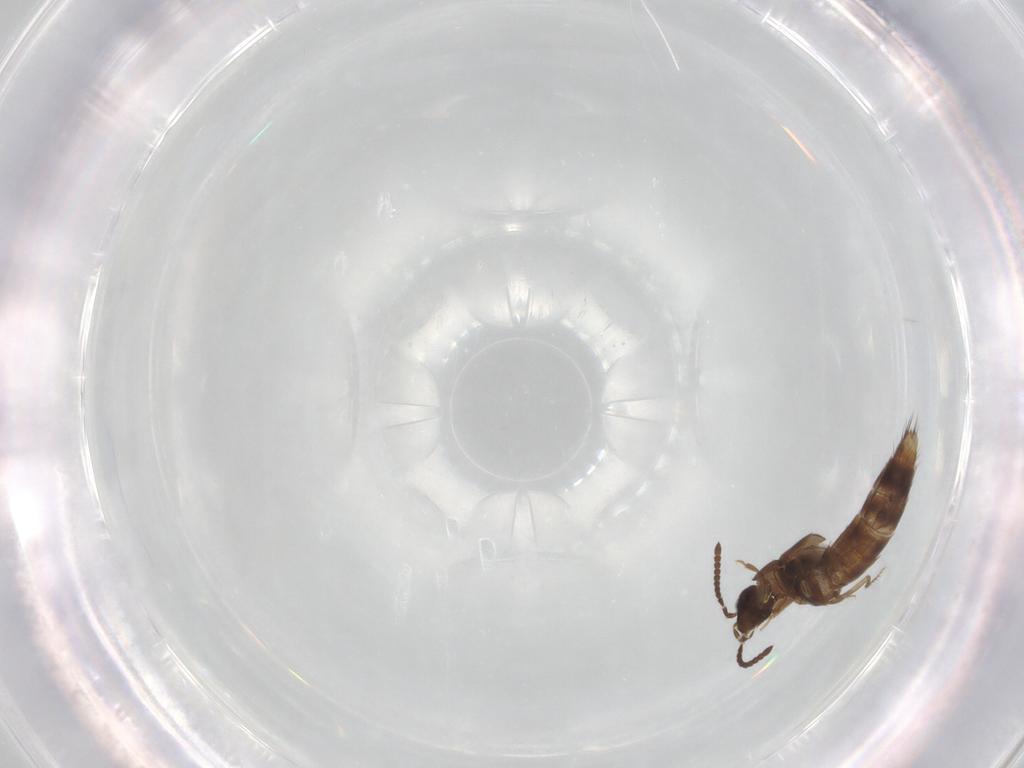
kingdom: Animalia
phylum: Arthropoda
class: Insecta
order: Coleoptera
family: Staphylinidae
